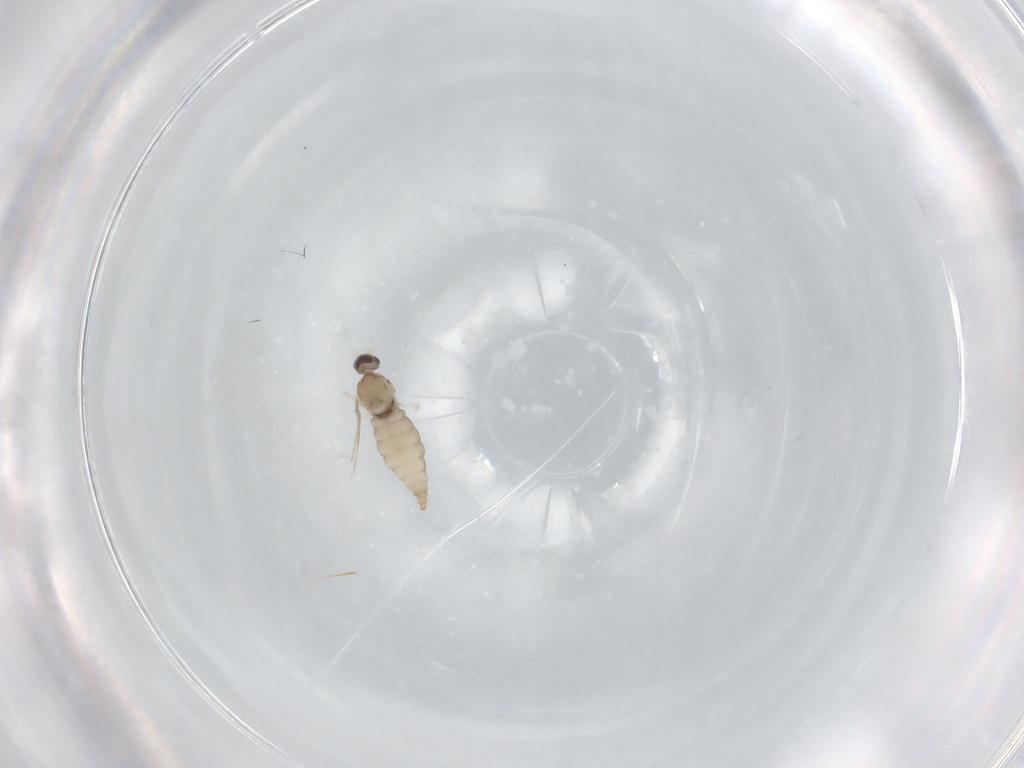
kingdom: Animalia
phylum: Arthropoda
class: Insecta
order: Diptera
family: Cecidomyiidae
